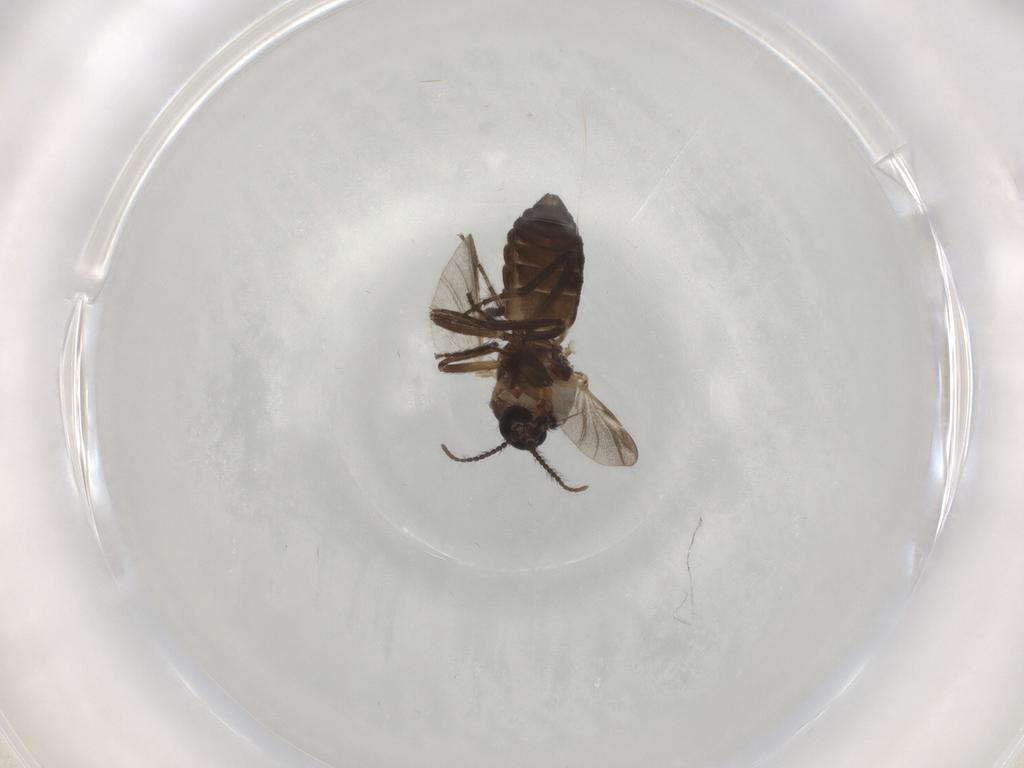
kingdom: Animalia
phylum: Arthropoda
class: Insecta
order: Diptera
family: Ceratopogonidae
